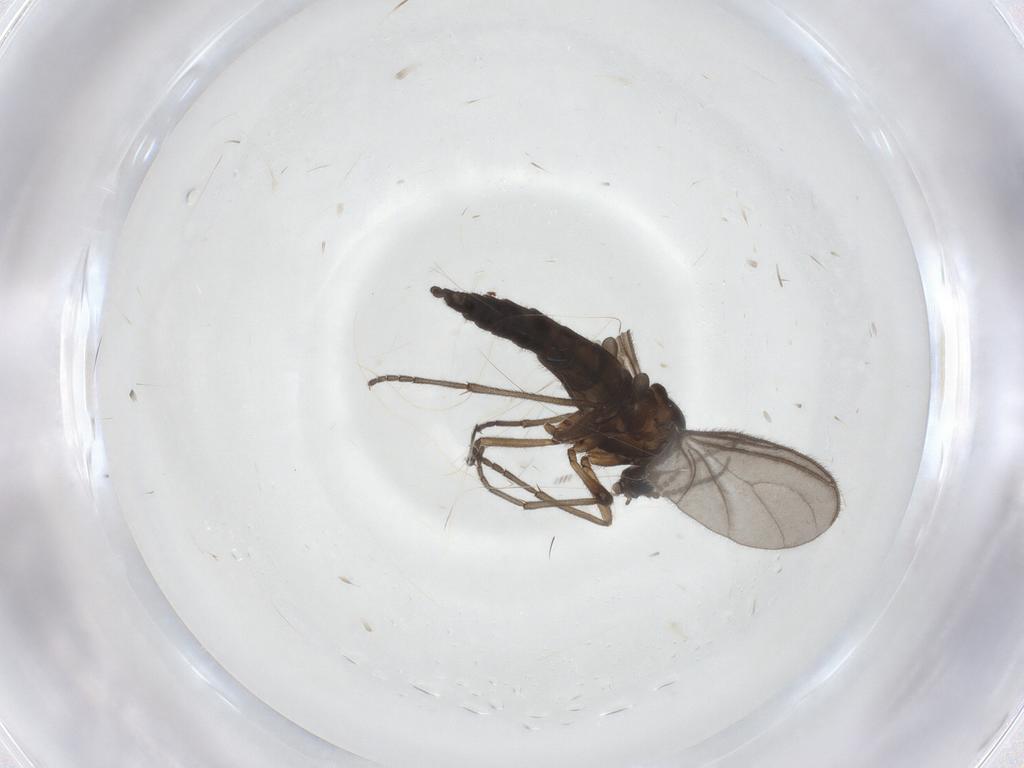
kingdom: Animalia
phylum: Arthropoda
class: Insecta
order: Diptera
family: Sciaridae
